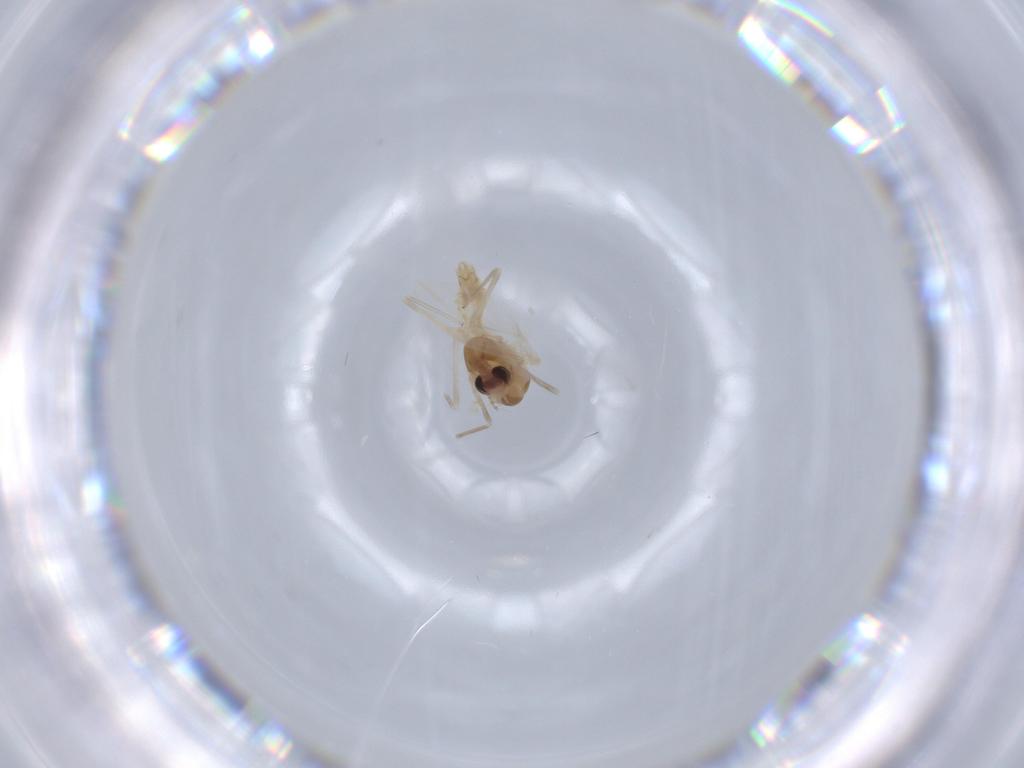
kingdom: Animalia
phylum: Arthropoda
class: Insecta
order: Diptera
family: Chironomidae
